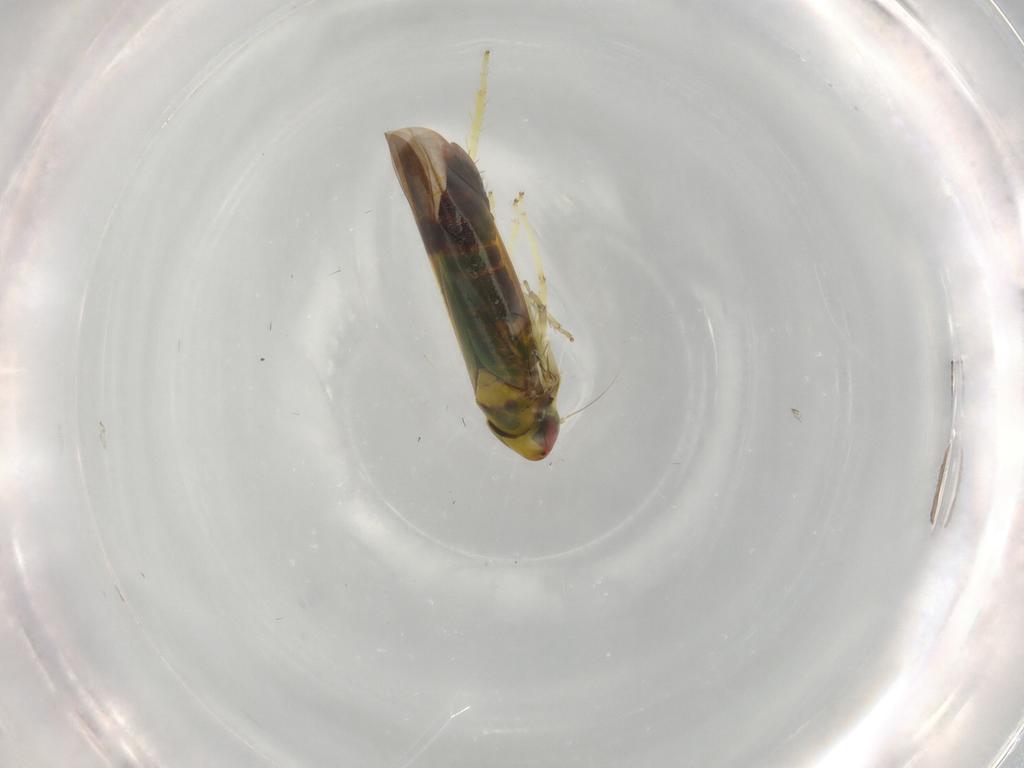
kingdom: Animalia
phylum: Arthropoda
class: Insecta
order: Hemiptera
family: Cicadellidae
